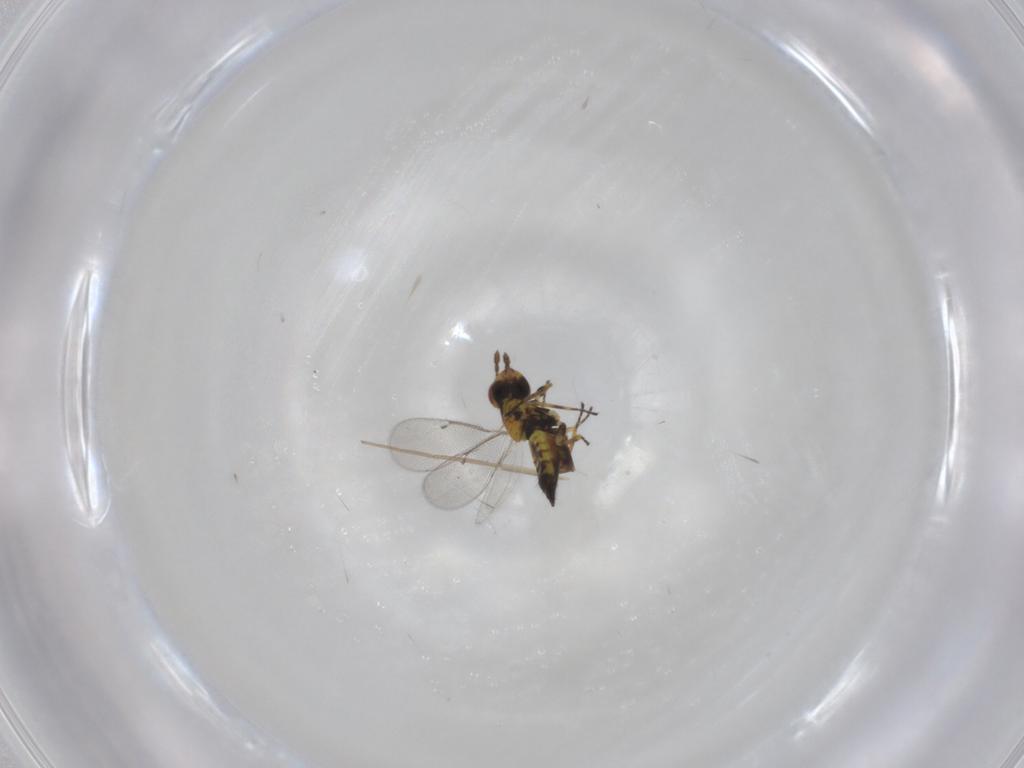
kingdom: Animalia
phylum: Arthropoda
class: Insecta
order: Hymenoptera
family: Eulophidae
